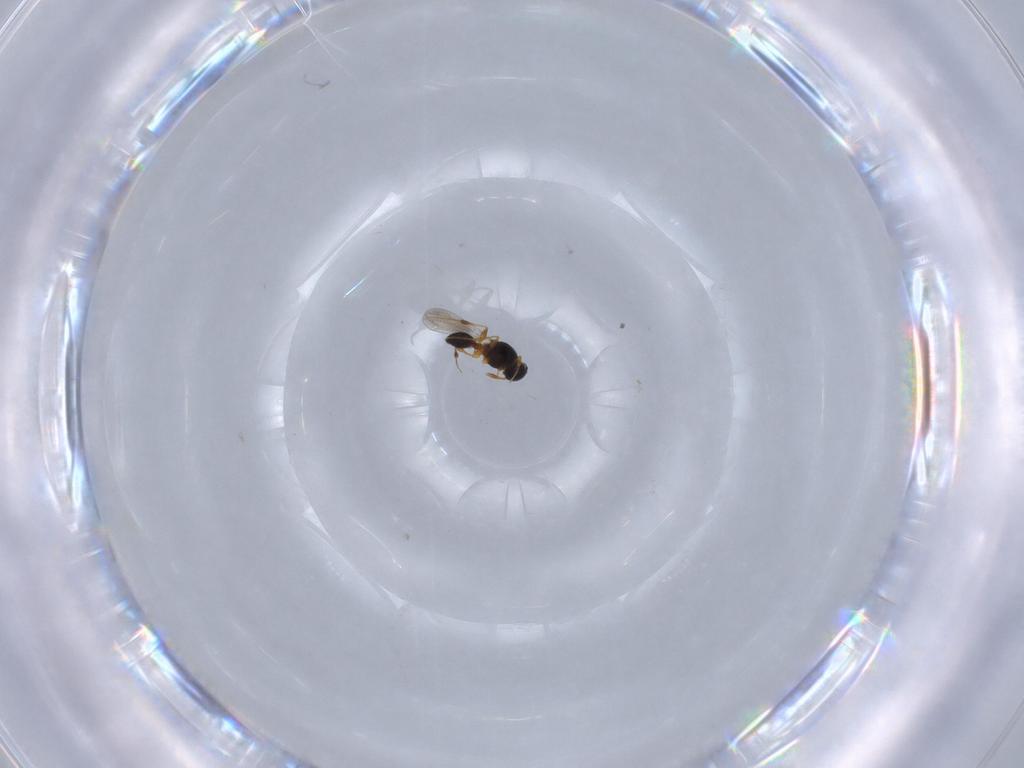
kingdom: Animalia
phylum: Arthropoda
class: Insecta
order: Hymenoptera
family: Platygastridae
